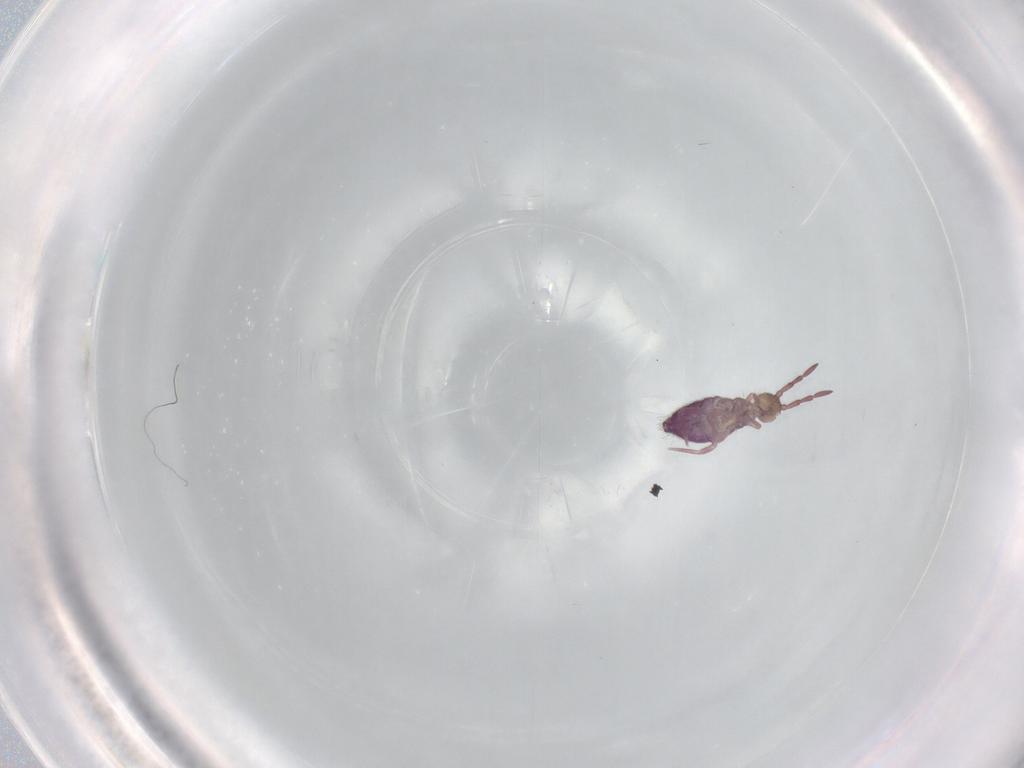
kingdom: Animalia
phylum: Arthropoda
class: Collembola
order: Entomobryomorpha
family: Entomobryidae
